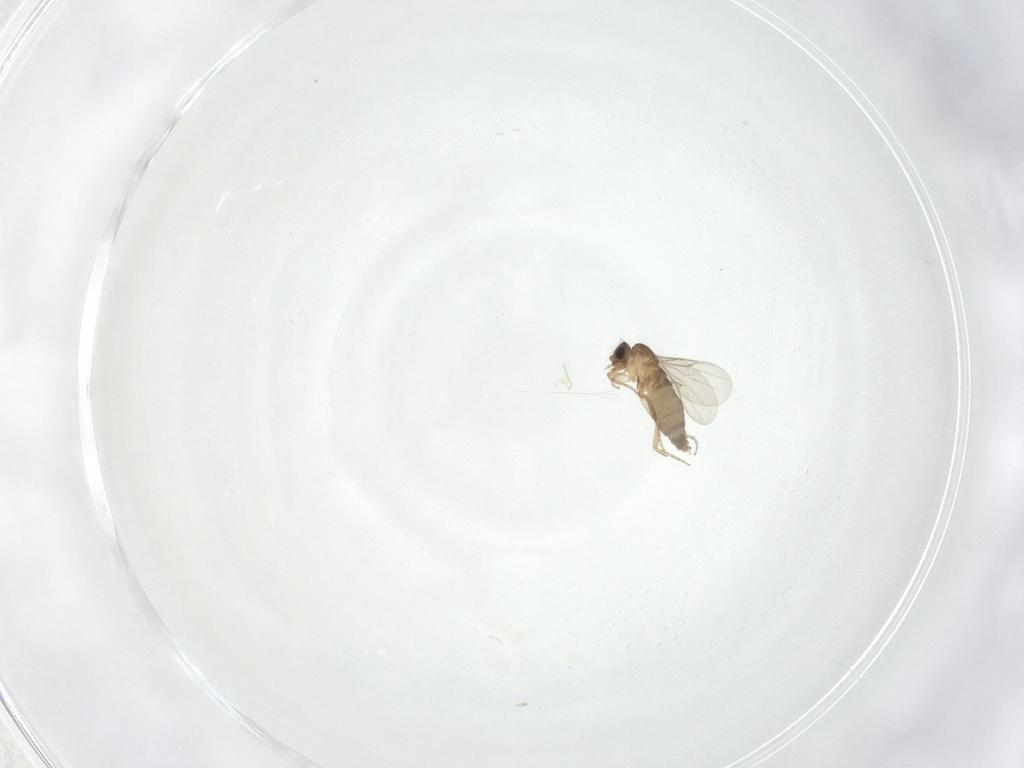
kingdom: Animalia
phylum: Arthropoda
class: Insecta
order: Diptera
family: Phoridae
